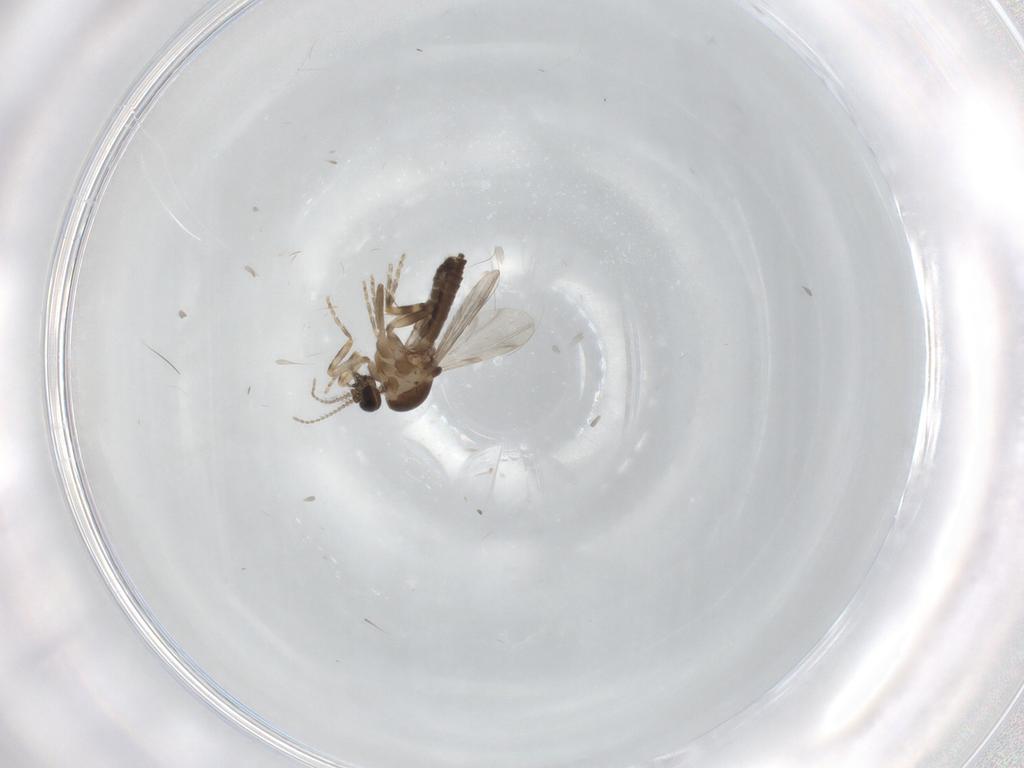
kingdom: Animalia
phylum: Arthropoda
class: Insecta
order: Diptera
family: Ceratopogonidae
